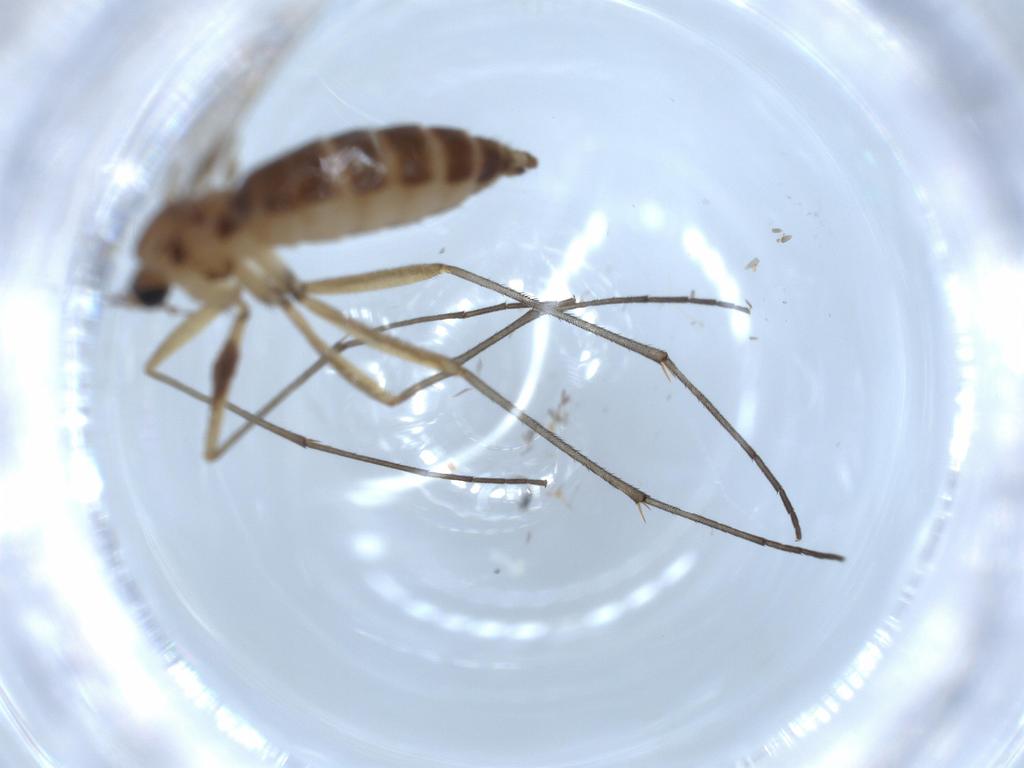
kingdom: Animalia
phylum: Arthropoda
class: Insecta
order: Diptera
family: Sciaridae
